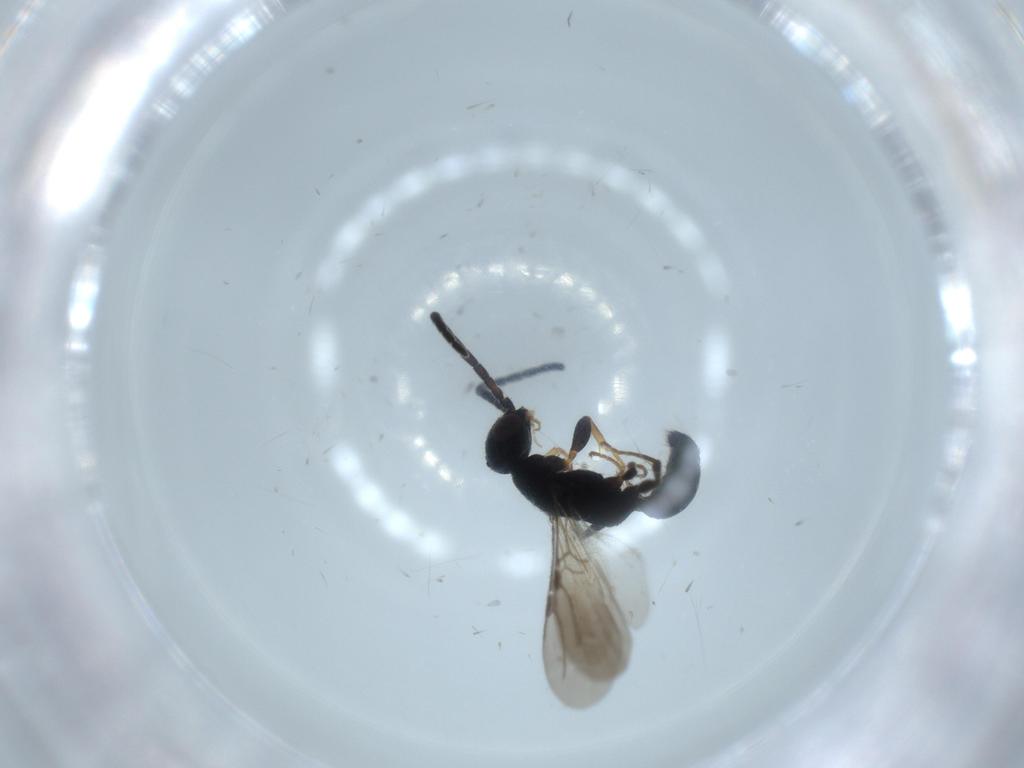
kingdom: Animalia
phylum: Arthropoda
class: Insecta
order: Hymenoptera
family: Bethylidae
